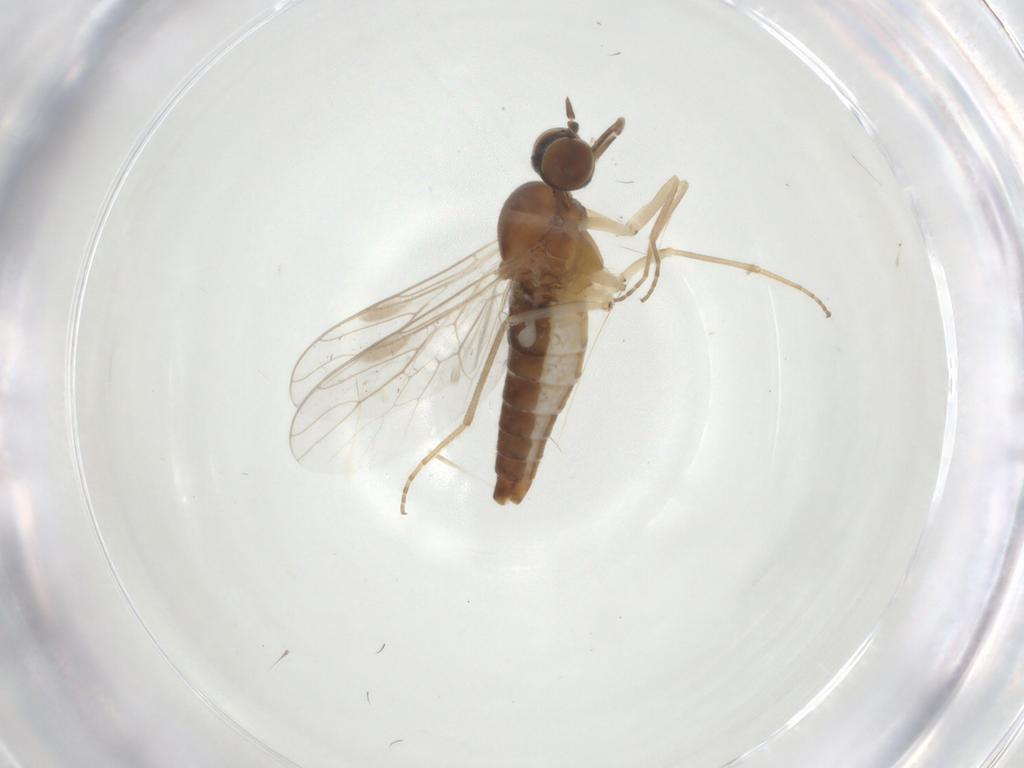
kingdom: Animalia
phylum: Arthropoda
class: Insecta
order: Diptera
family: Scenopinidae
